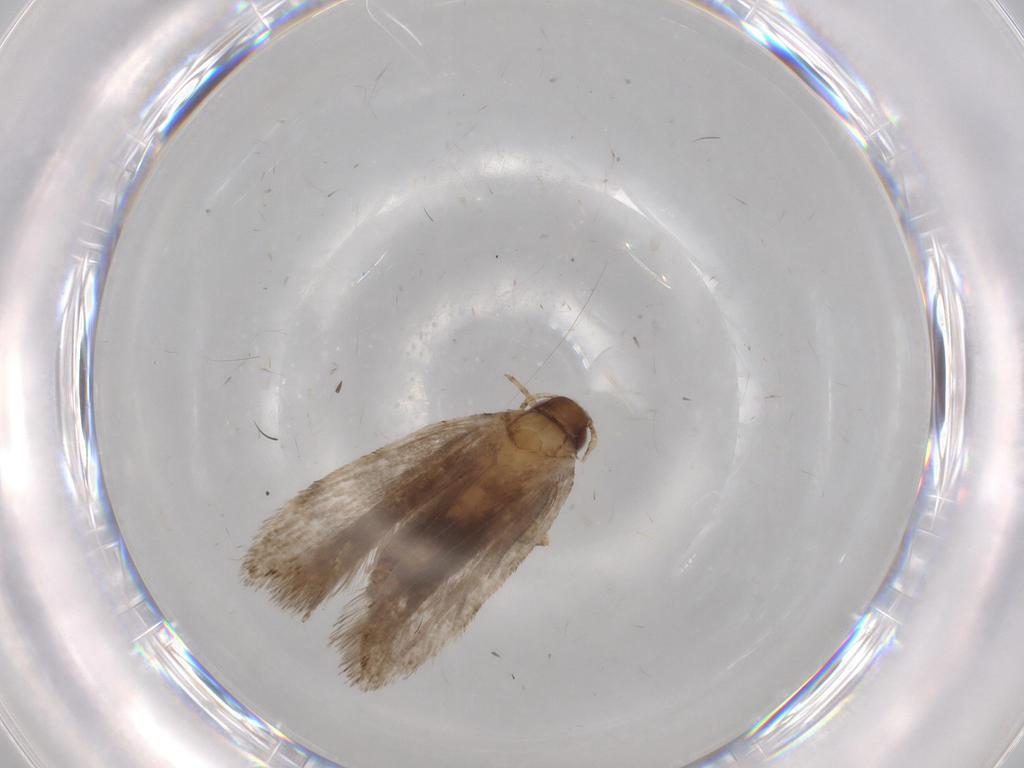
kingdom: Animalia
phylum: Arthropoda
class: Insecta
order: Lepidoptera
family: Gelechiidae
